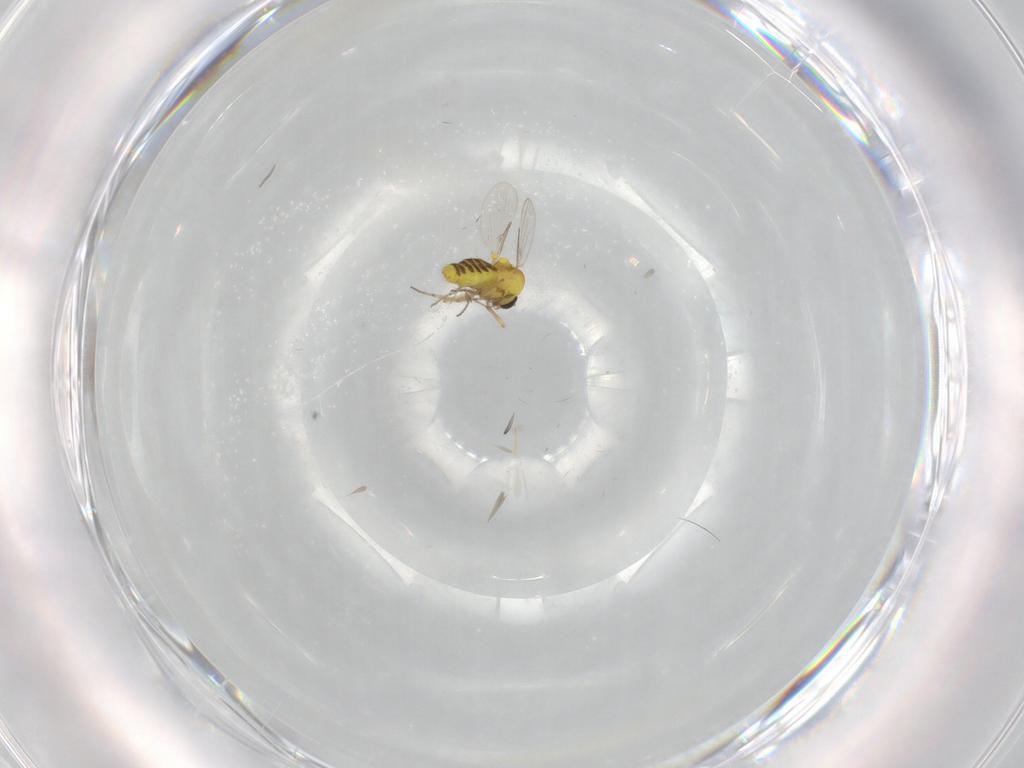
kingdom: Animalia
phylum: Arthropoda
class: Insecta
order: Diptera
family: Ceratopogonidae
